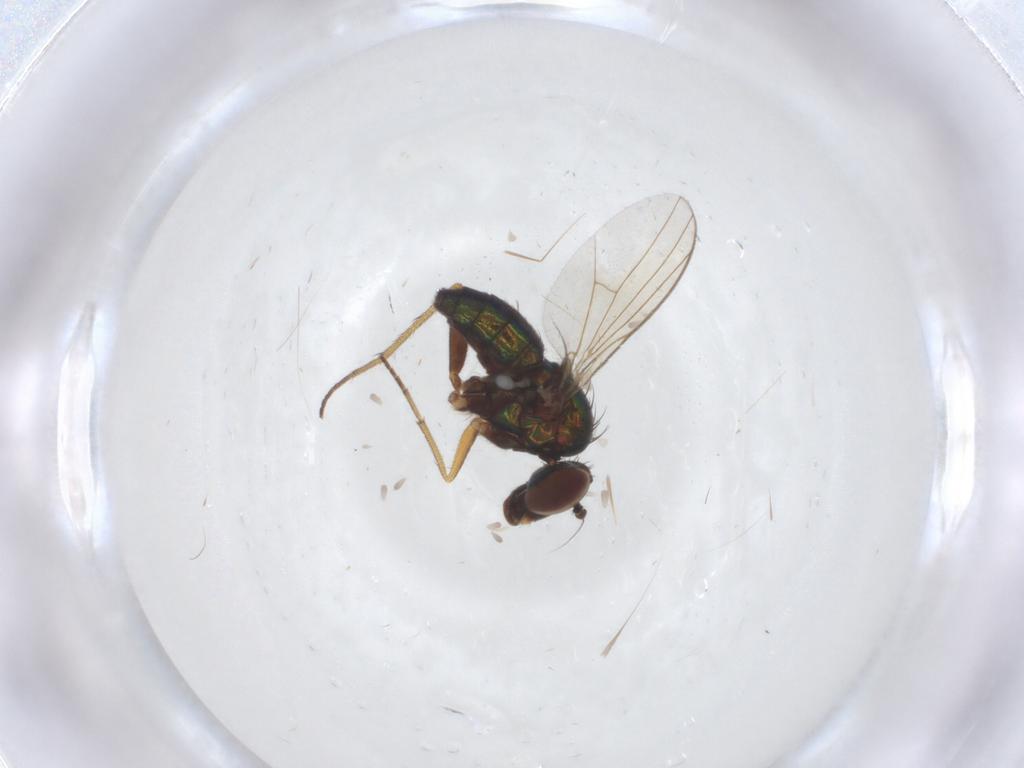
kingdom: Animalia
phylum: Arthropoda
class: Insecta
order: Diptera
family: Ceratopogonidae
